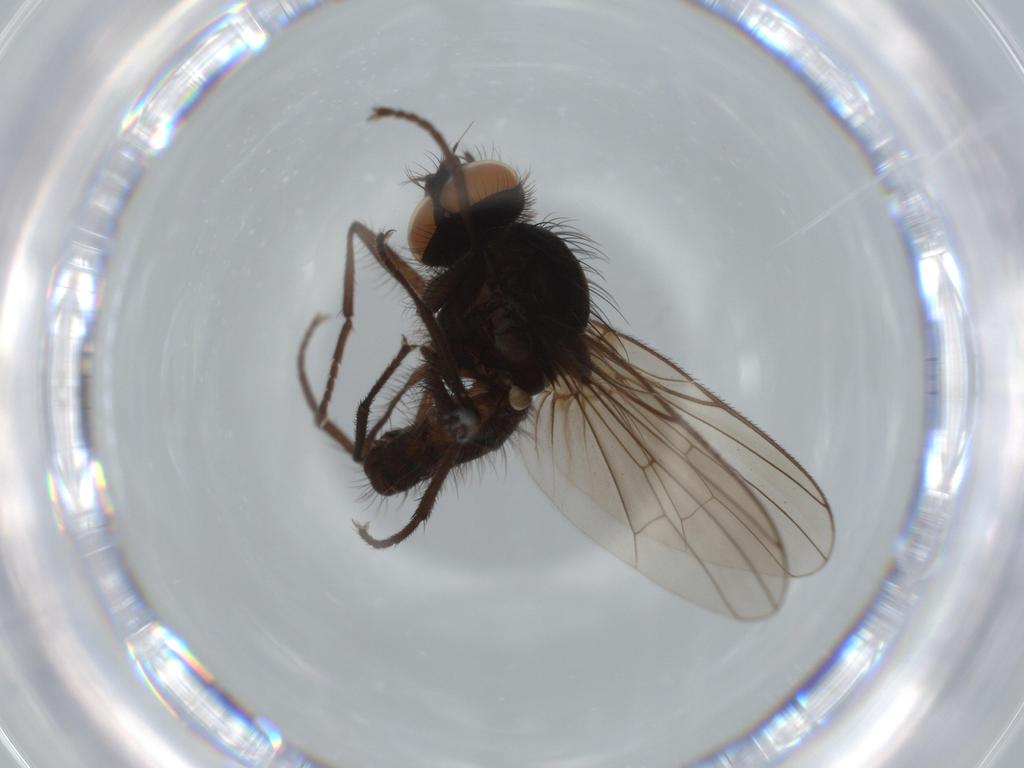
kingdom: Animalia
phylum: Arthropoda
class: Insecta
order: Diptera
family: Anthomyiidae
